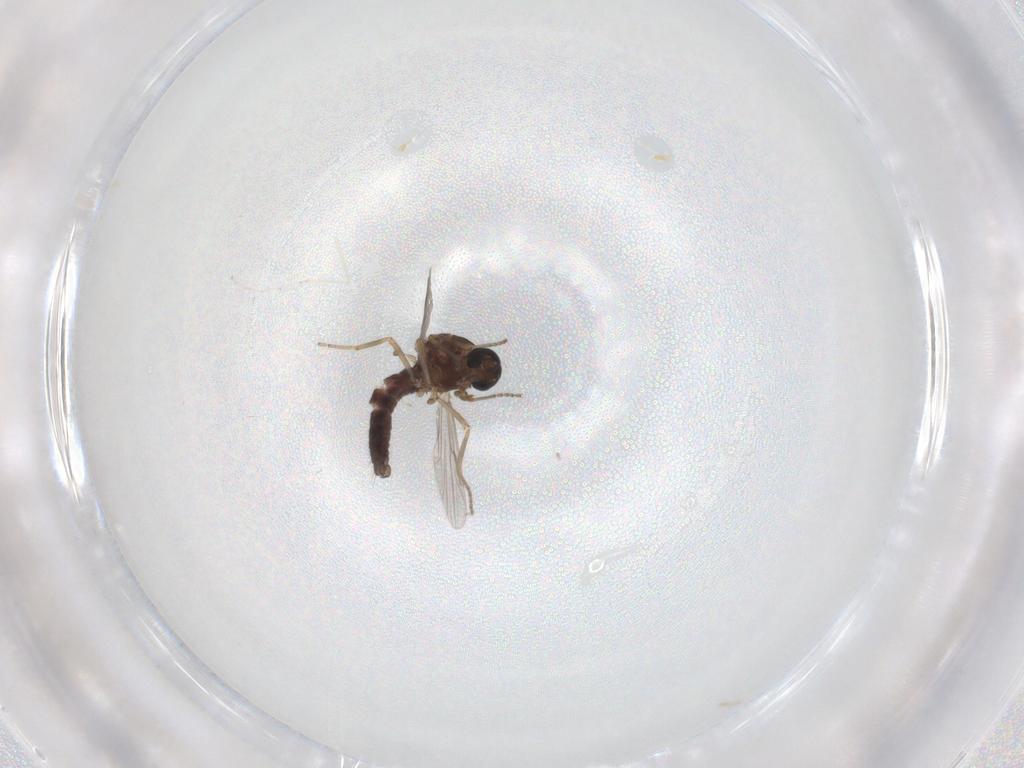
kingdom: Animalia
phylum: Arthropoda
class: Insecta
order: Diptera
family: Ceratopogonidae
